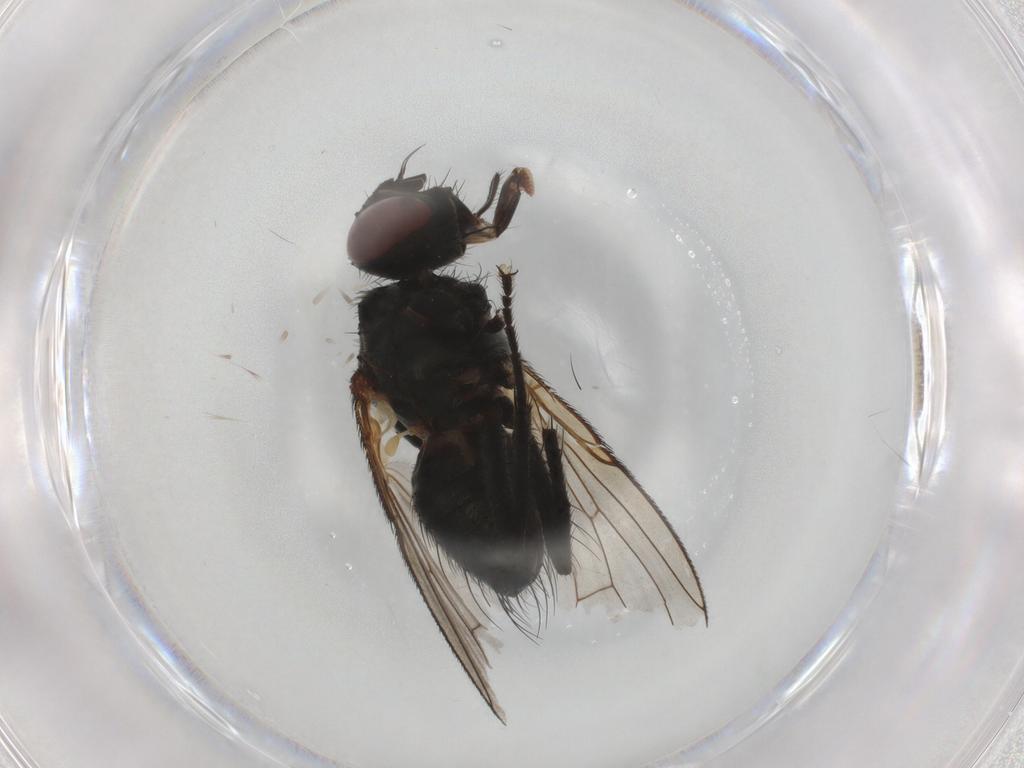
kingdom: Animalia
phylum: Arthropoda
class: Insecta
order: Diptera
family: Muscidae
